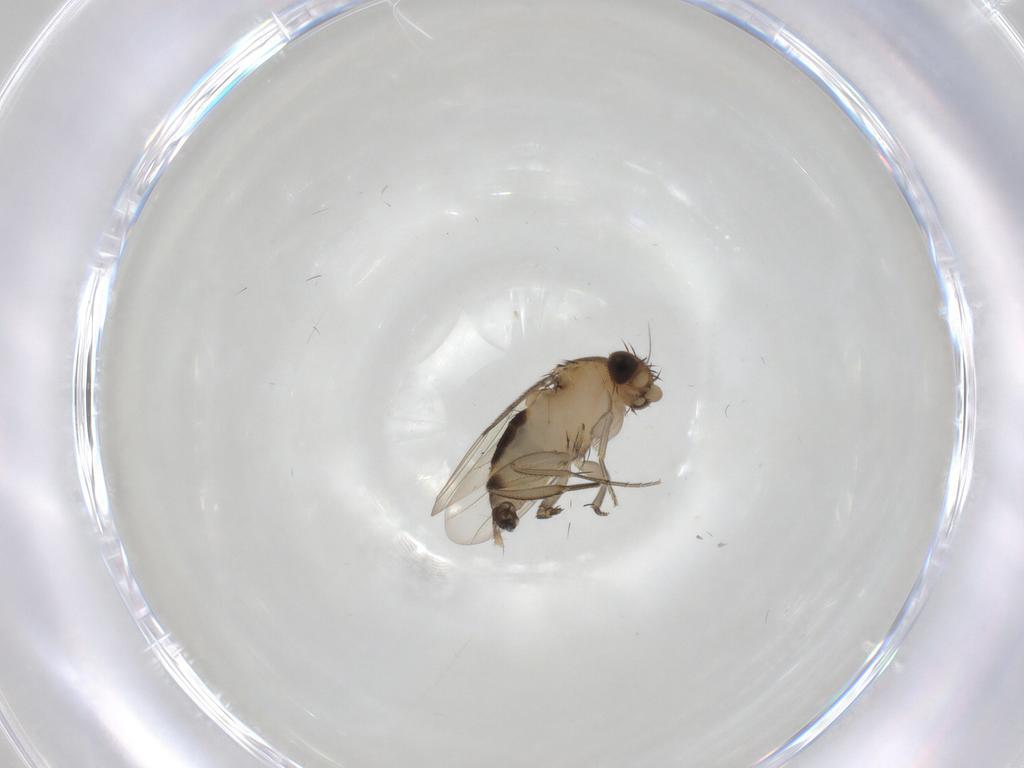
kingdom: Animalia
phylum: Arthropoda
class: Insecta
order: Diptera
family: Phoridae
